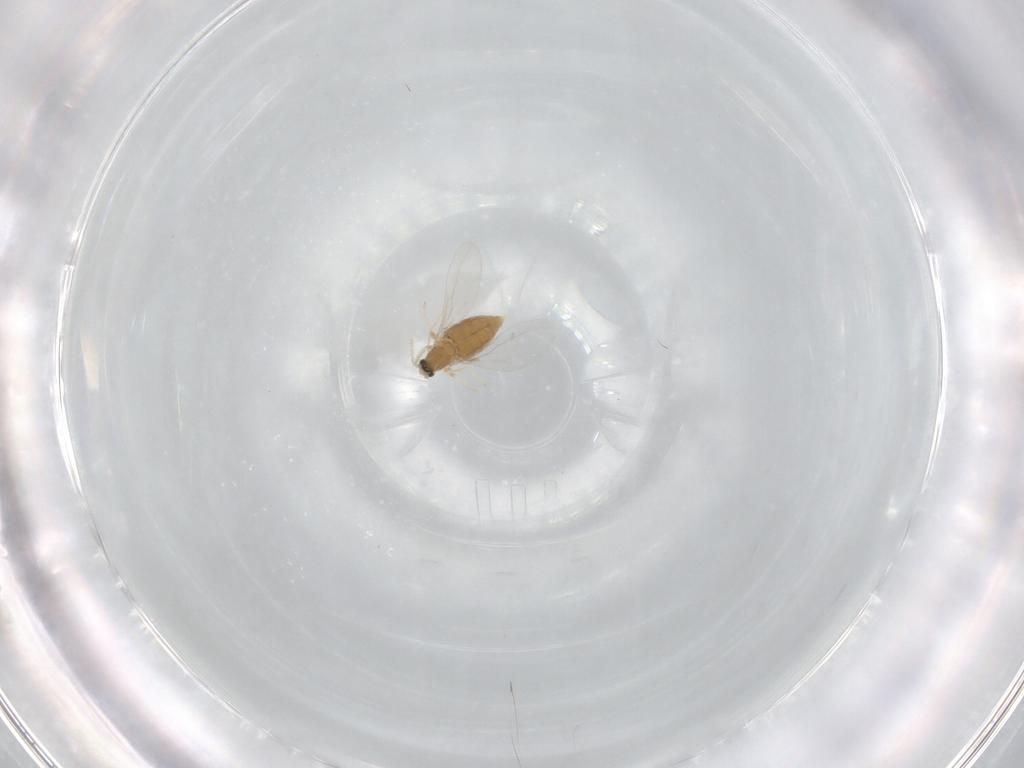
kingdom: Animalia
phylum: Arthropoda
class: Insecta
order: Diptera
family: Cecidomyiidae
